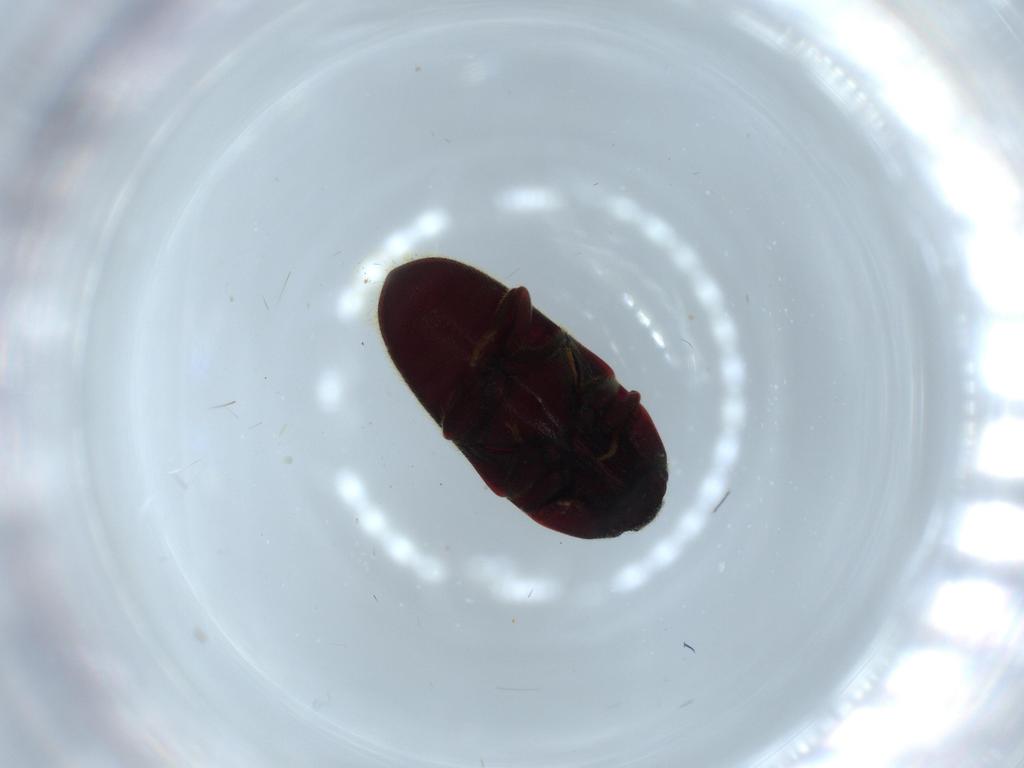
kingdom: Animalia
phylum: Arthropoda
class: Insecta
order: Coleoptera
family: Throscidae
